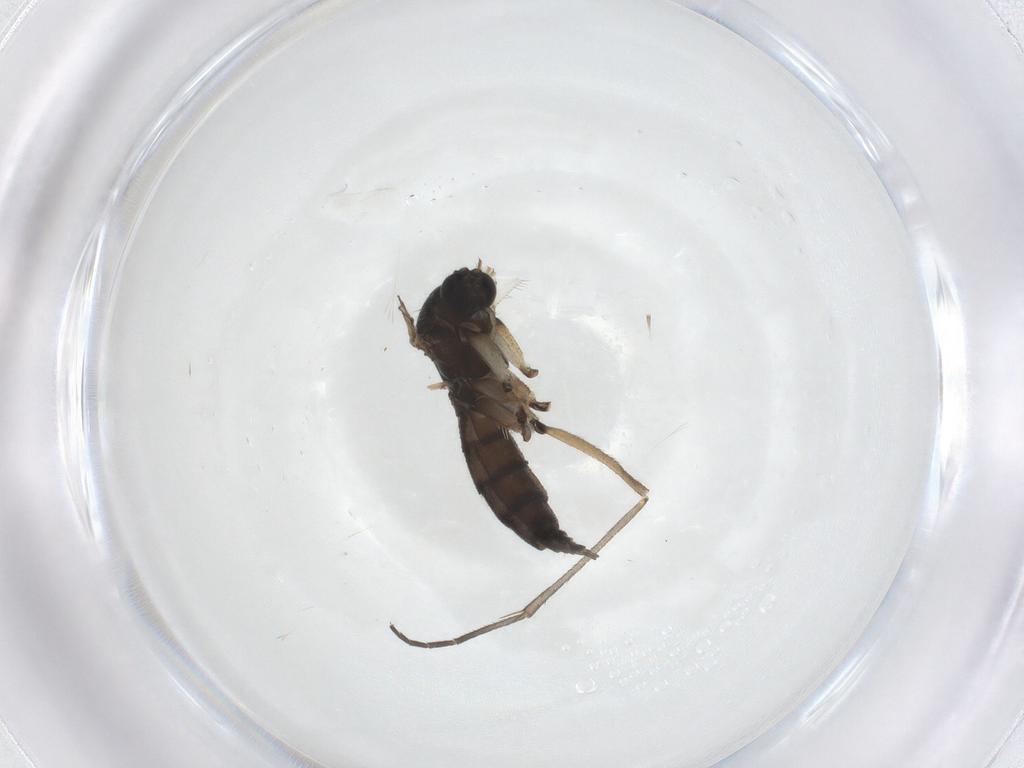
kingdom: Animalia
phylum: Arthropoda
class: Insecta
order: Diptera
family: Sciaridae
